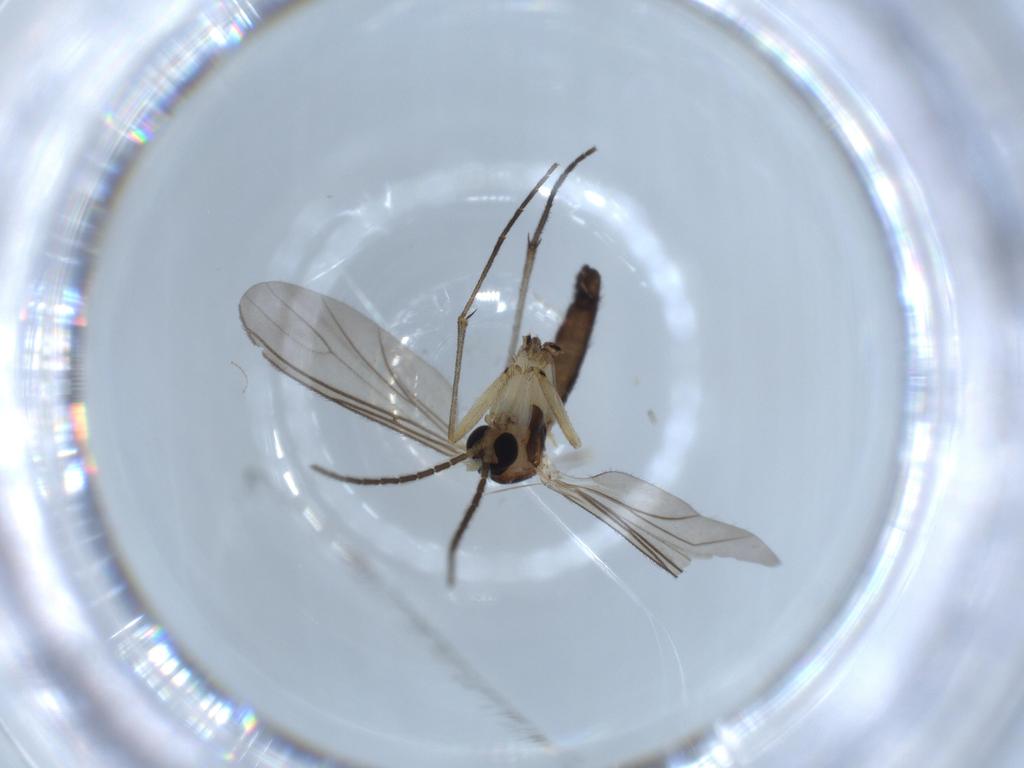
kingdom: Animalia
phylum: Arthropoda
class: Insecta
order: Diptera
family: Sciaridae
